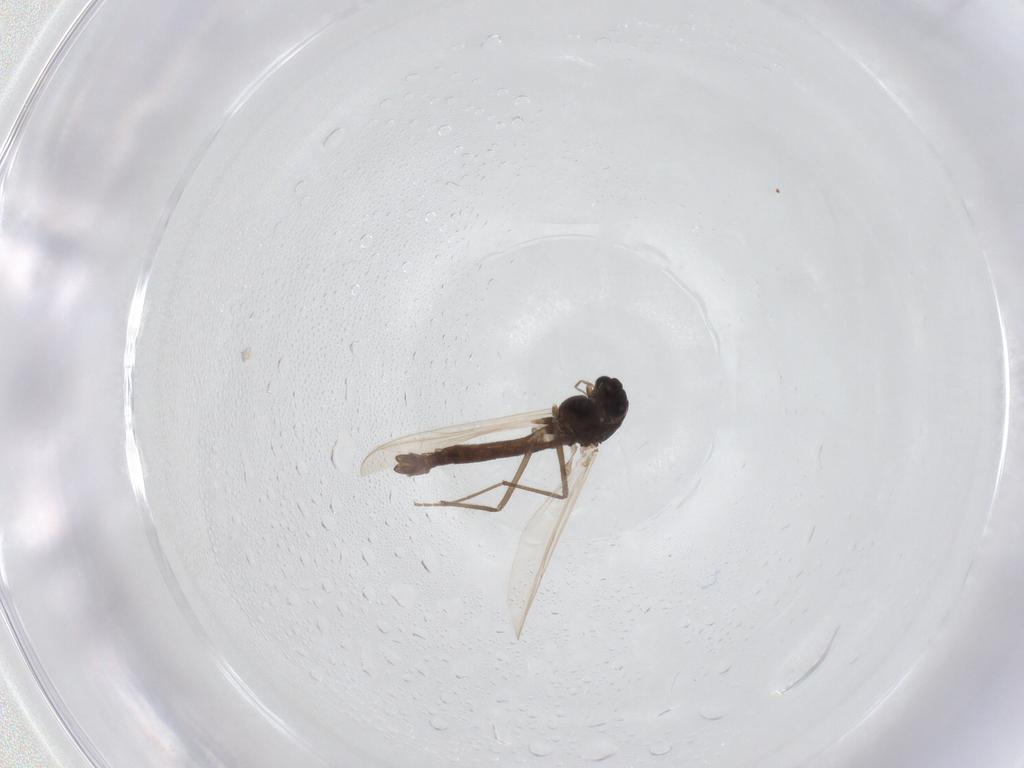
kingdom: Animalia
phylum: Arthropoda
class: Insecta
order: Diptera
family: Chironomidae
